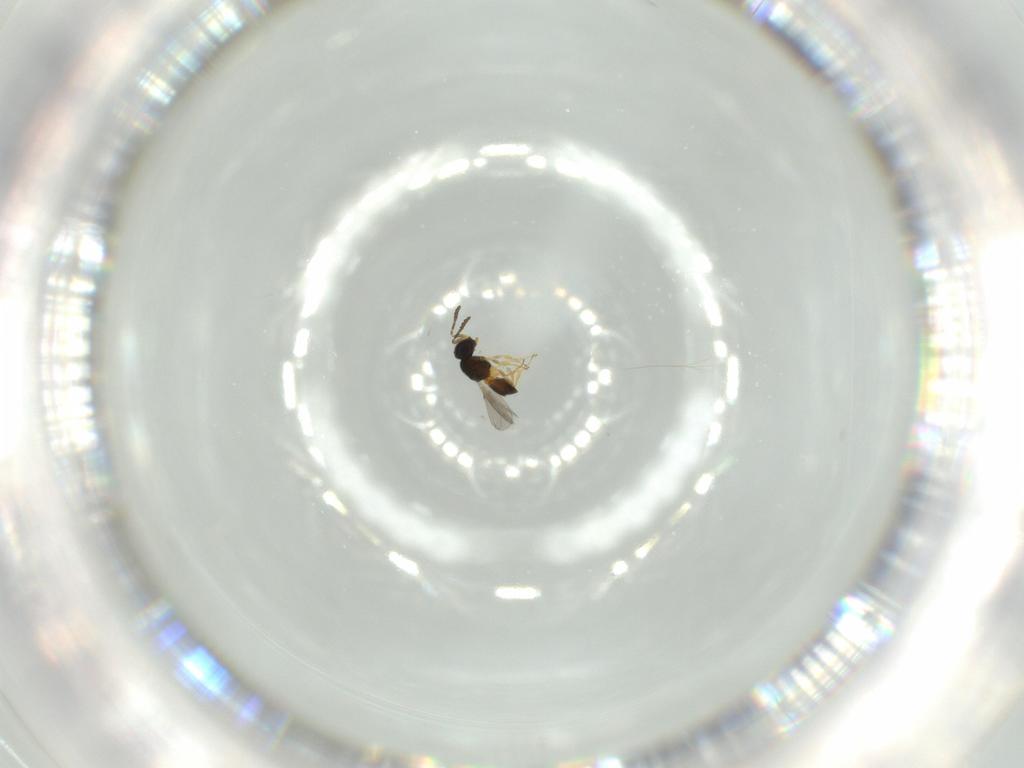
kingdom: Animalia
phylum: Arthropoda
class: Insecta
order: Hymenoptera
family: Scelionidae
